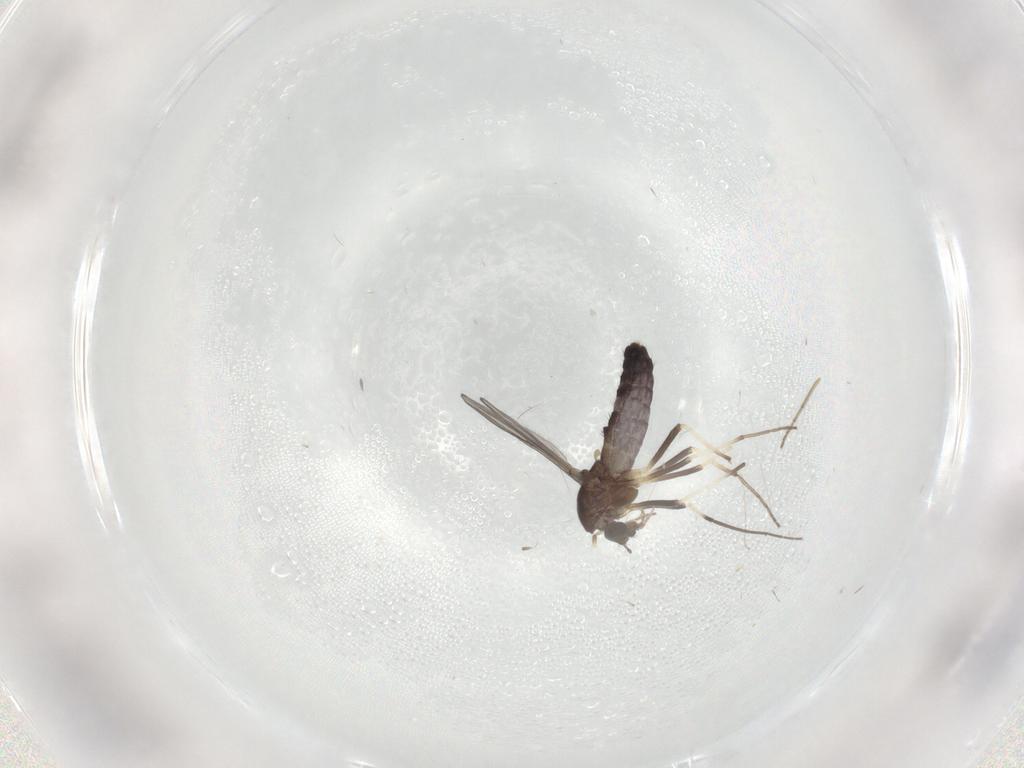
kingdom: Animalia
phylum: Arthropoda
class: Insecta
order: Diptera
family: Chironomidae
